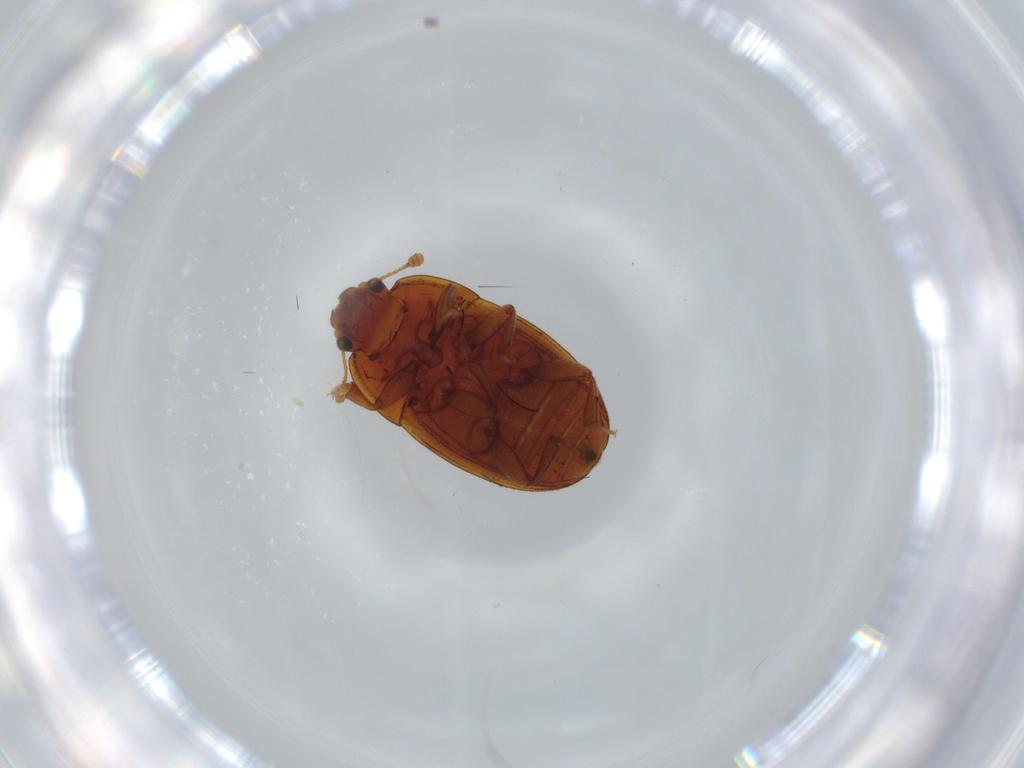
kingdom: Animalia
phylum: Arthropoda
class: Insecta
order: Coleoptera
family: Nitidulidae
